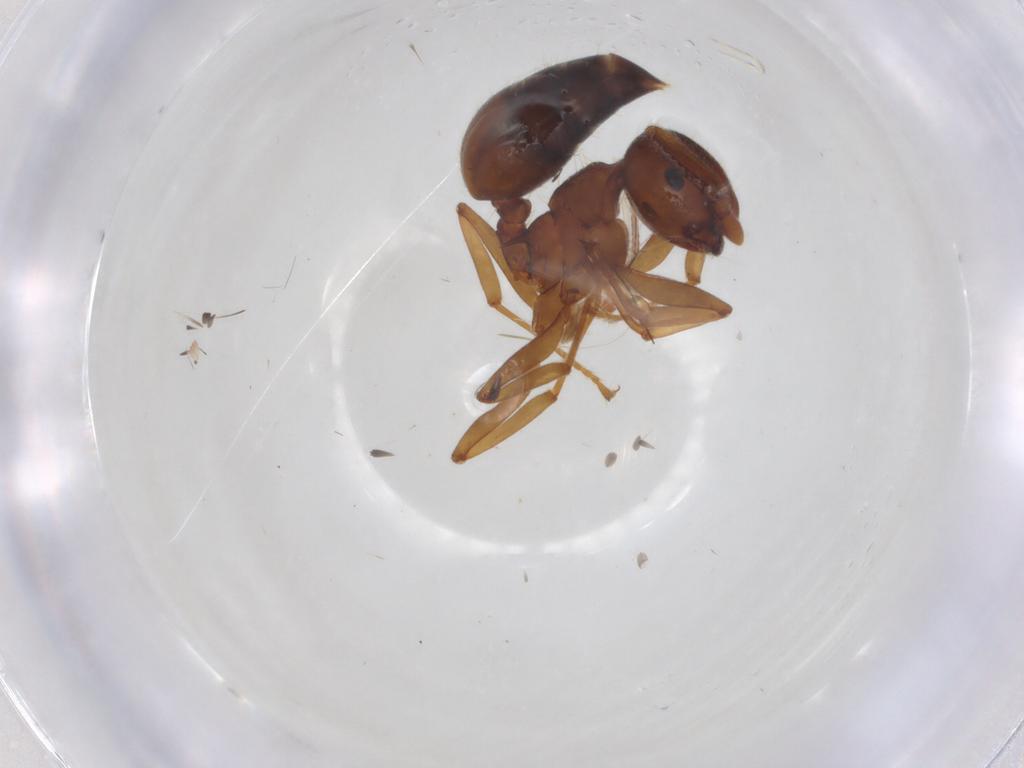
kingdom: Animalia
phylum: Arthropoda
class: Insecta
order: Hymenoptera
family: Formicidae
